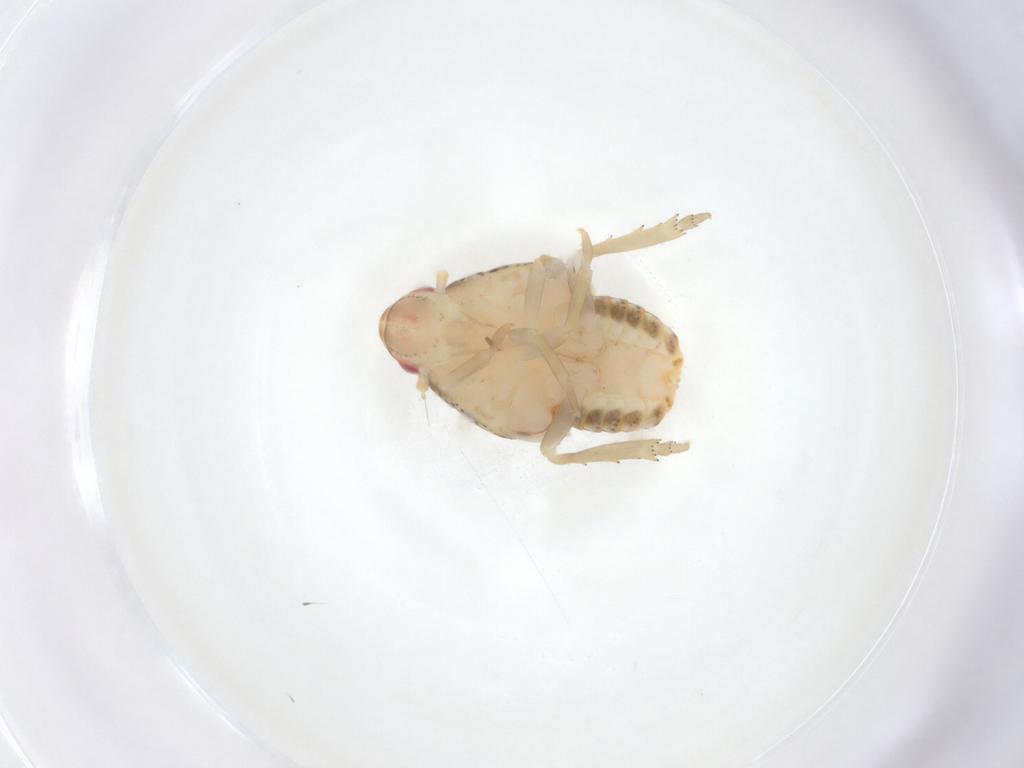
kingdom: Animalia
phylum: Arthropoda
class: Insecta
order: Hemiptera
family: Flatidae
